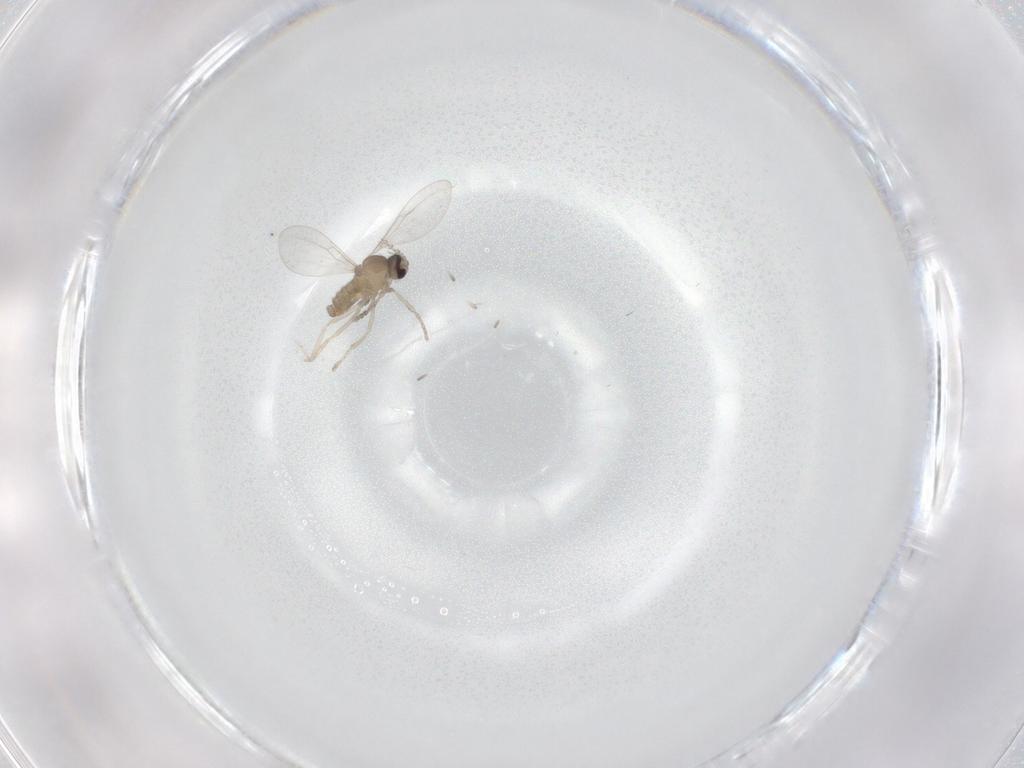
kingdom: Animalia
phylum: Arthropoda
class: Insecta
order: Diptera
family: Cecidomyiidae
